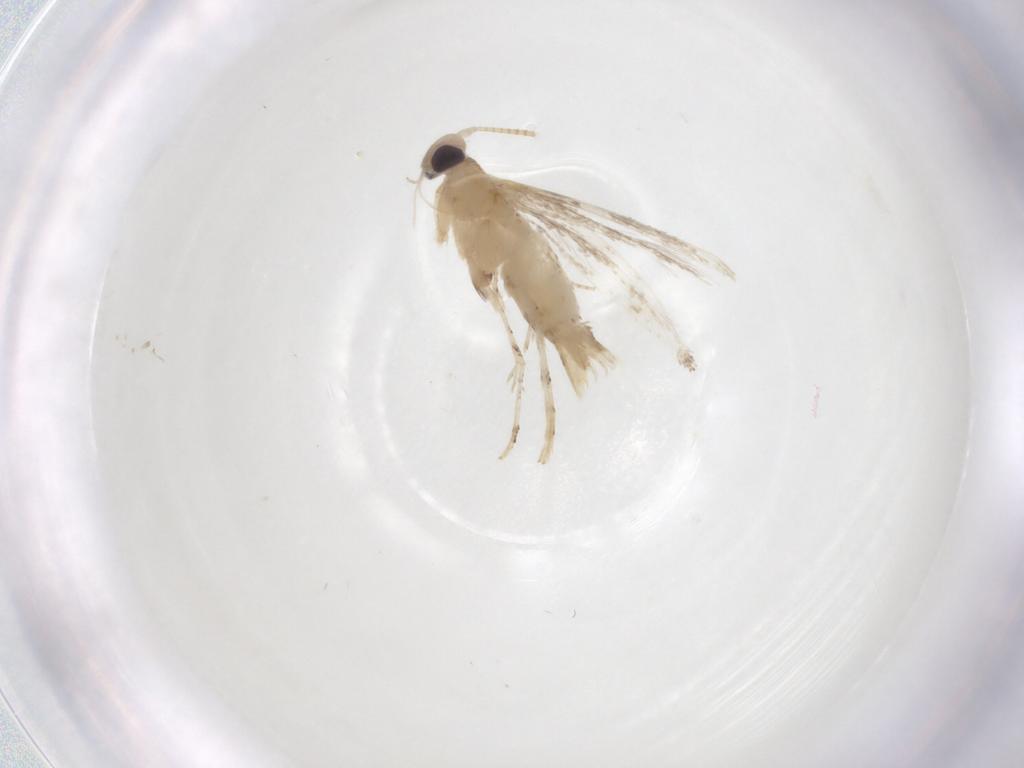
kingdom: Animalia
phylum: Arthropoda
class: Insecta
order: Lepidoptera
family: Gracillariidae
